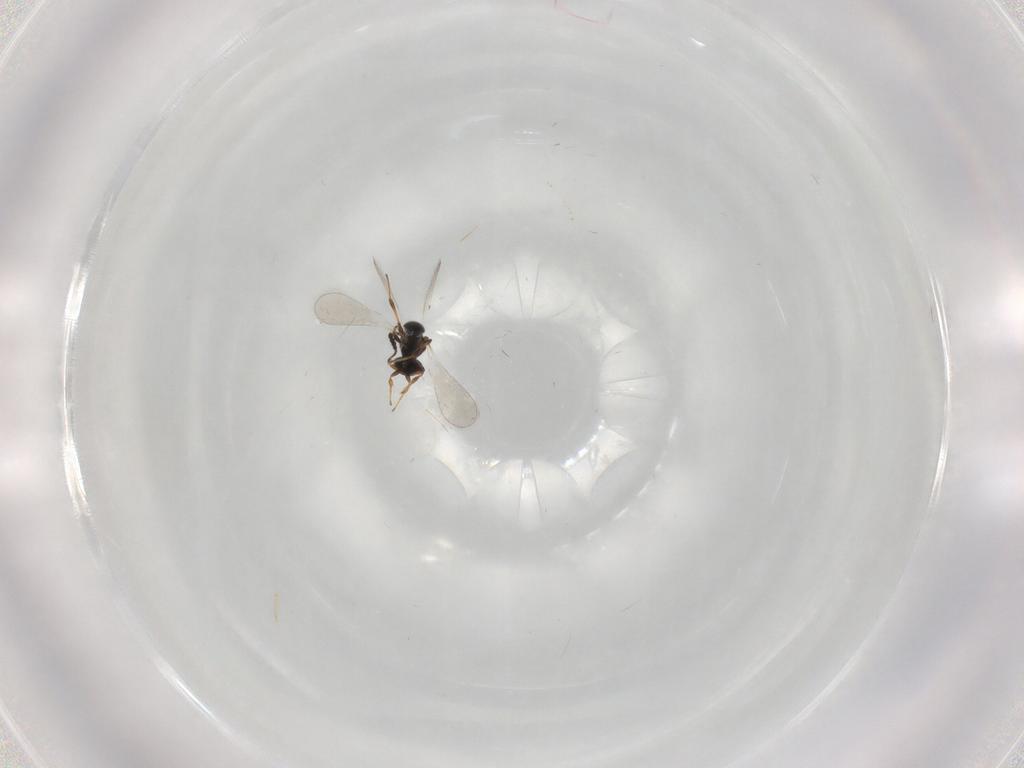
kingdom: Animalia
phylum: Arthropoda
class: Insecta
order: Hymenoptera
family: Platygastridae
